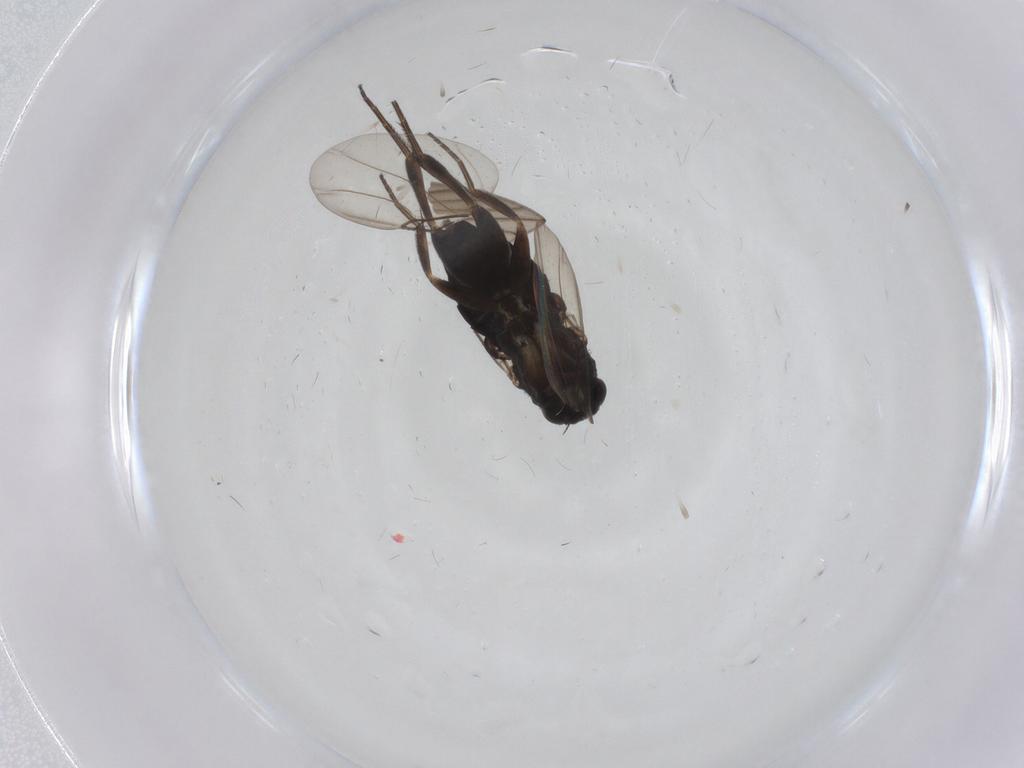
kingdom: Animalia
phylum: Arthropoda
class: Insecta
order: Diptera
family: Phoridae
